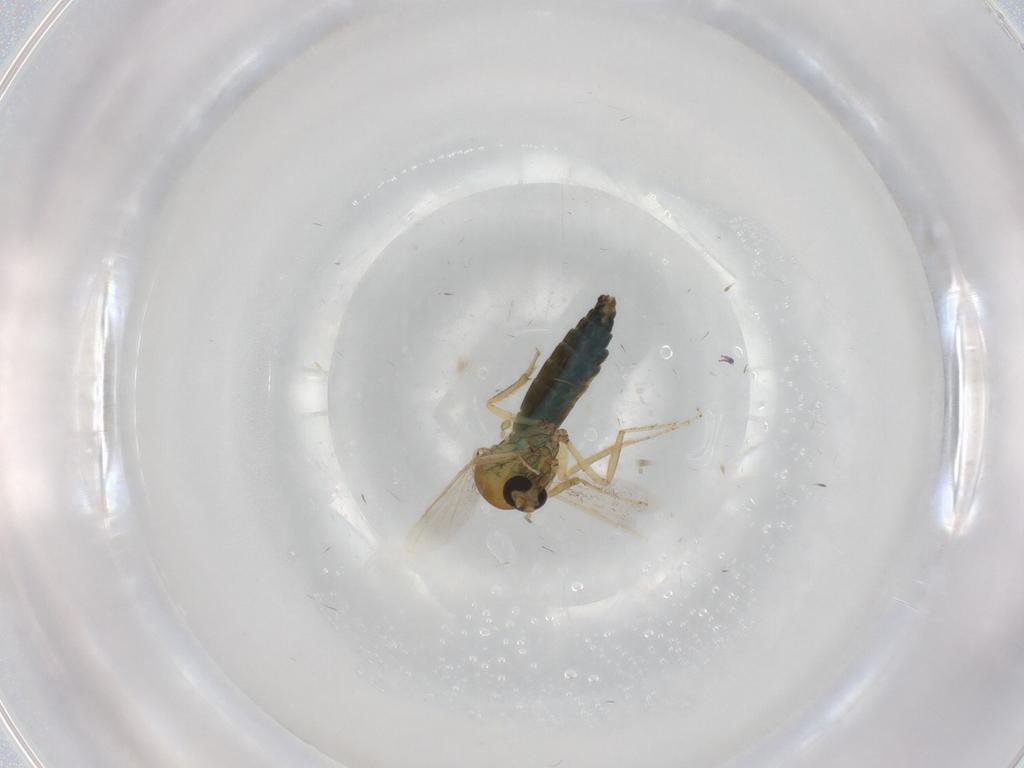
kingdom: Animalia
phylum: Arthropoda
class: Insecta
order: Diptera
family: Ceratopogonidae
